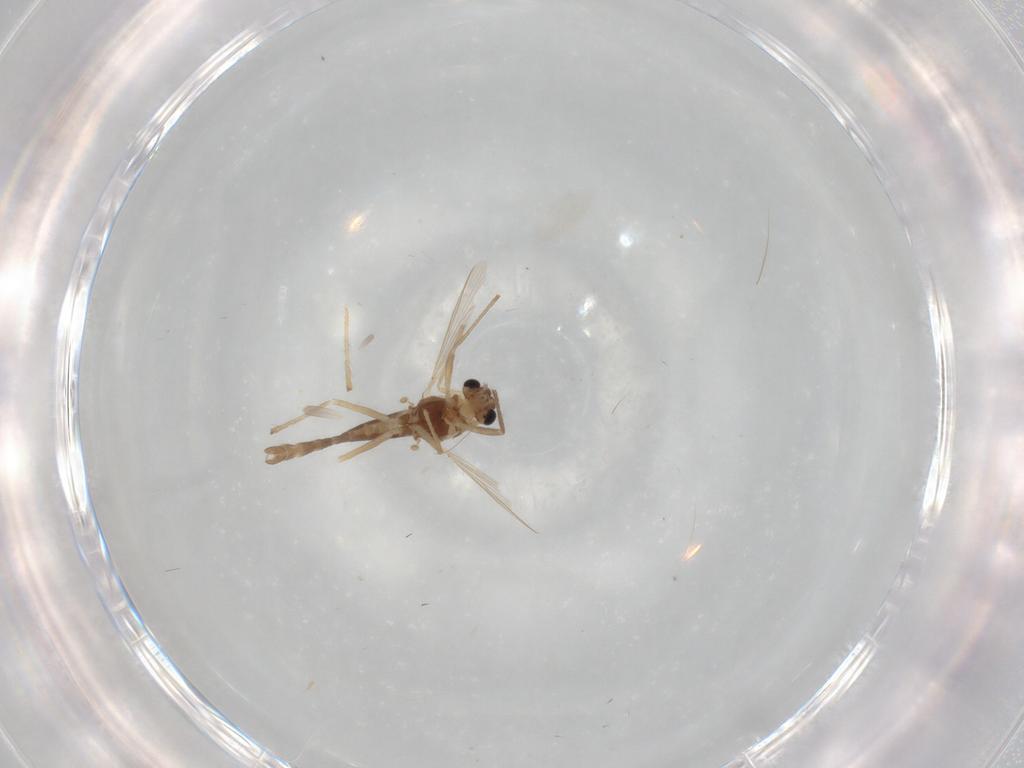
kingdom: Animalia
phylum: Arthropoda
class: Insecta
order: Diptera
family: Chironomidae
